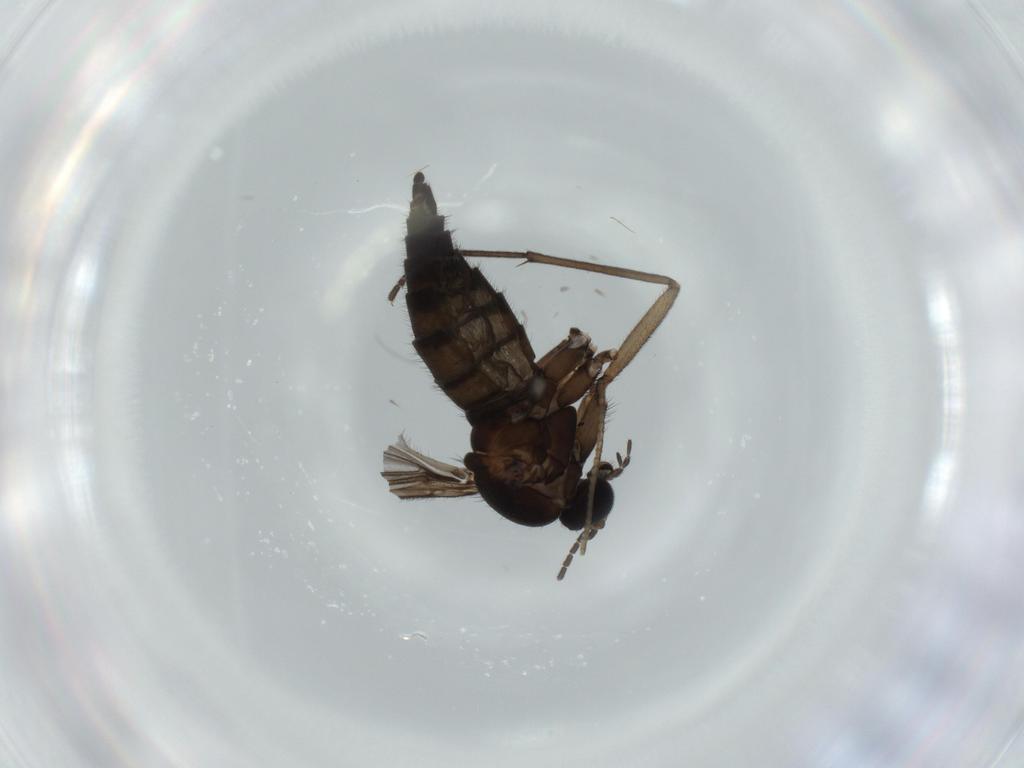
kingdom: Animalia
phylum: Arthropoda
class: Insecta
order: Diptera
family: Sciaridae
